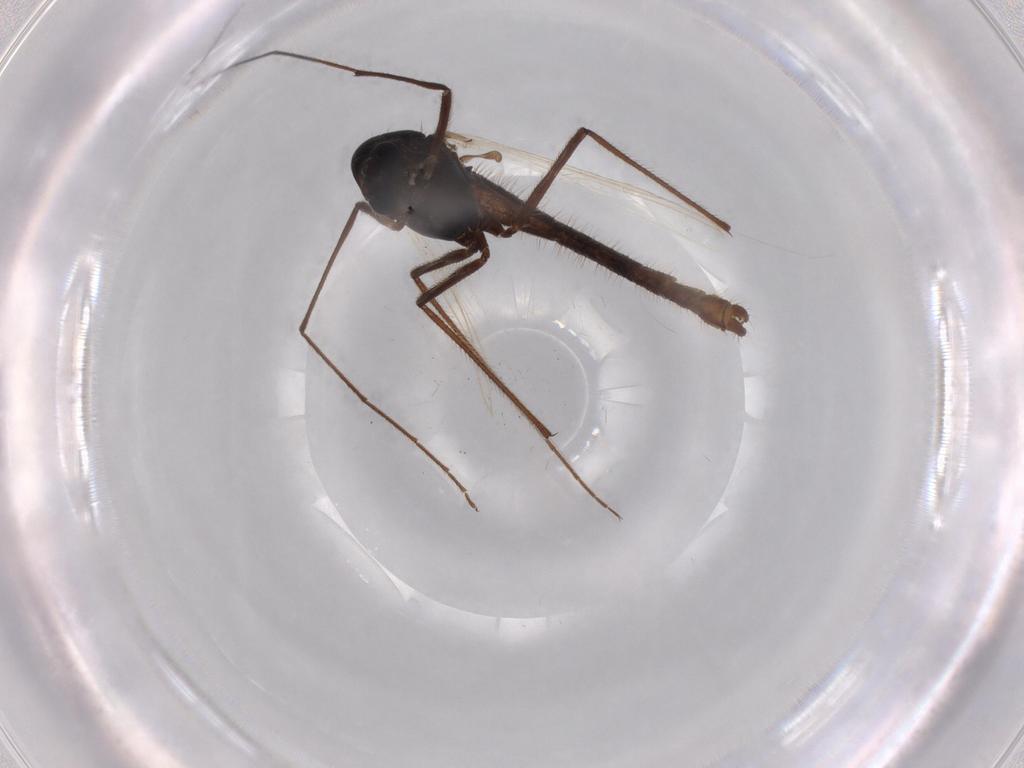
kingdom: Animalia
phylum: Arthropoda
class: Insecta
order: Diptera
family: Chironomidae
